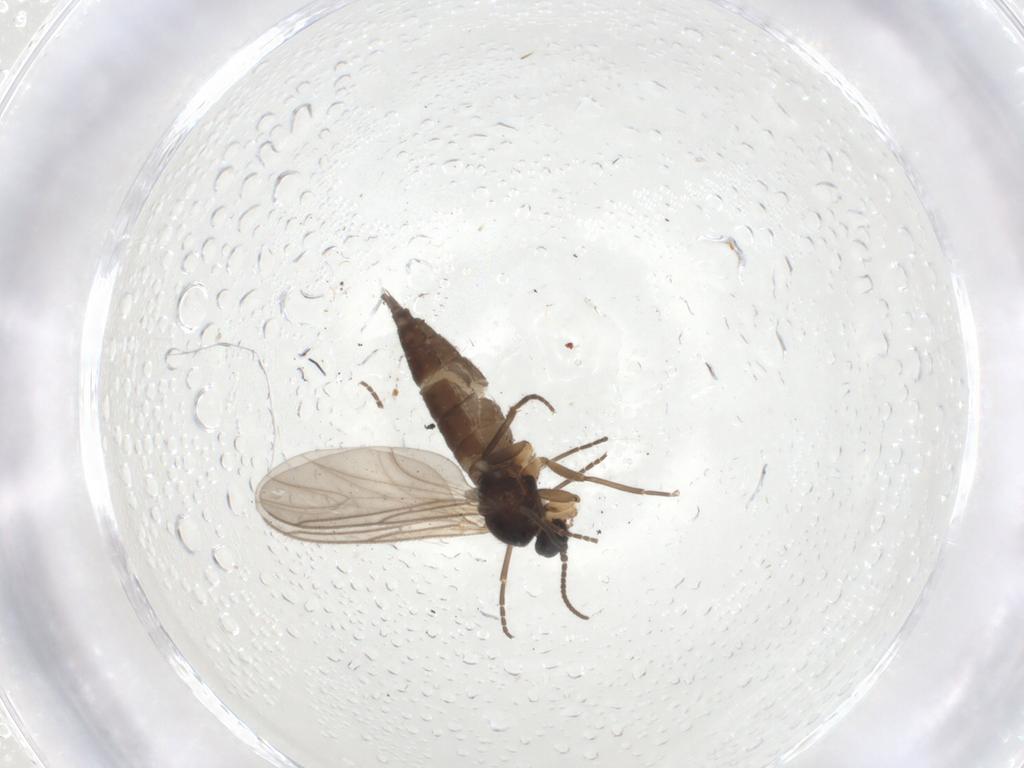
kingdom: Animalia
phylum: Arthropoda
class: Insecta
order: Diptera
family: Sciaridae
